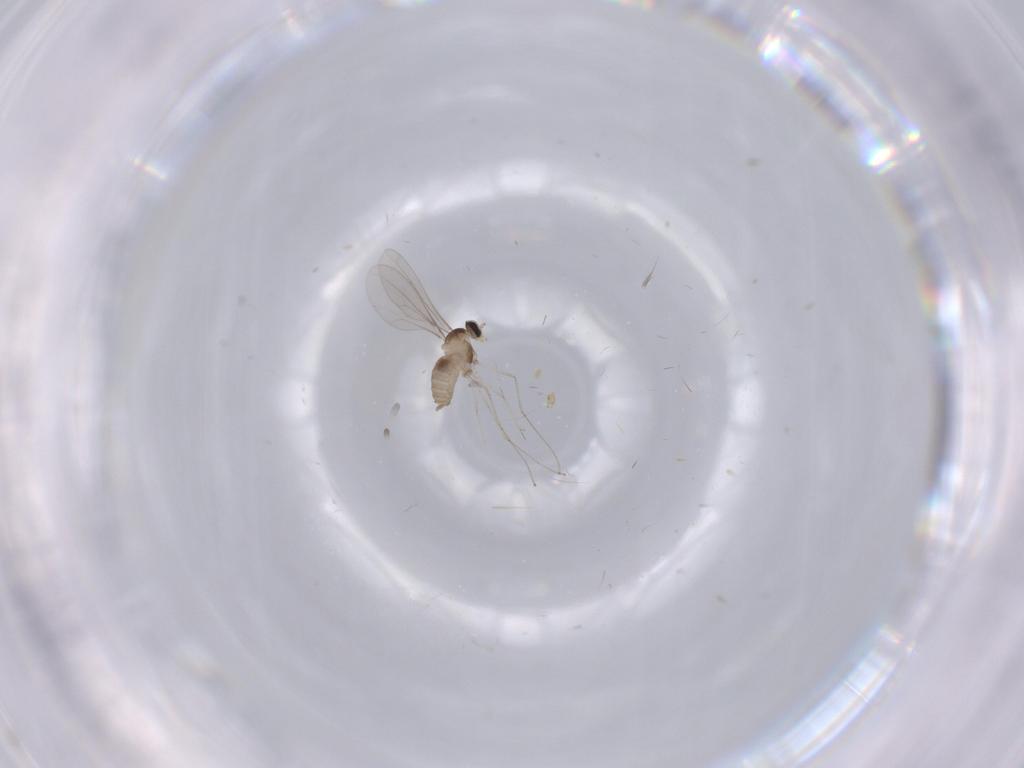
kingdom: Animalia
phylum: Arthropoda
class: Insecta
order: Diptera
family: Cecidomyiidae
